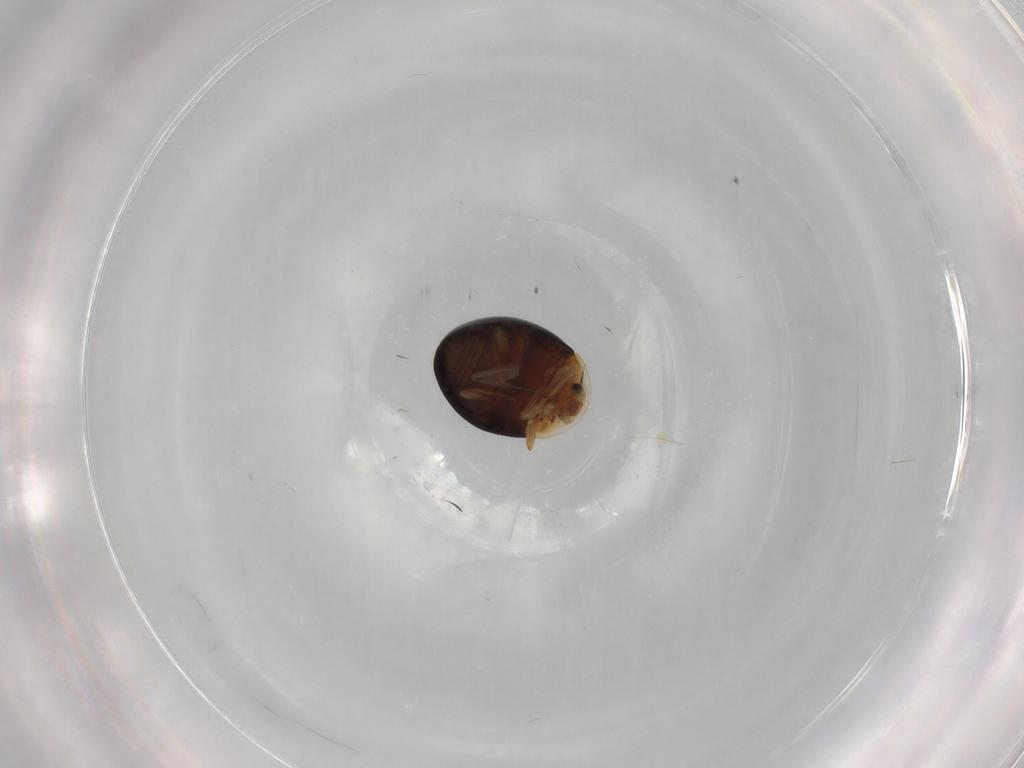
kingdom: Animalia
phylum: Arthropoda
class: Insecta
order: Coleoptera
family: Corylophidae
